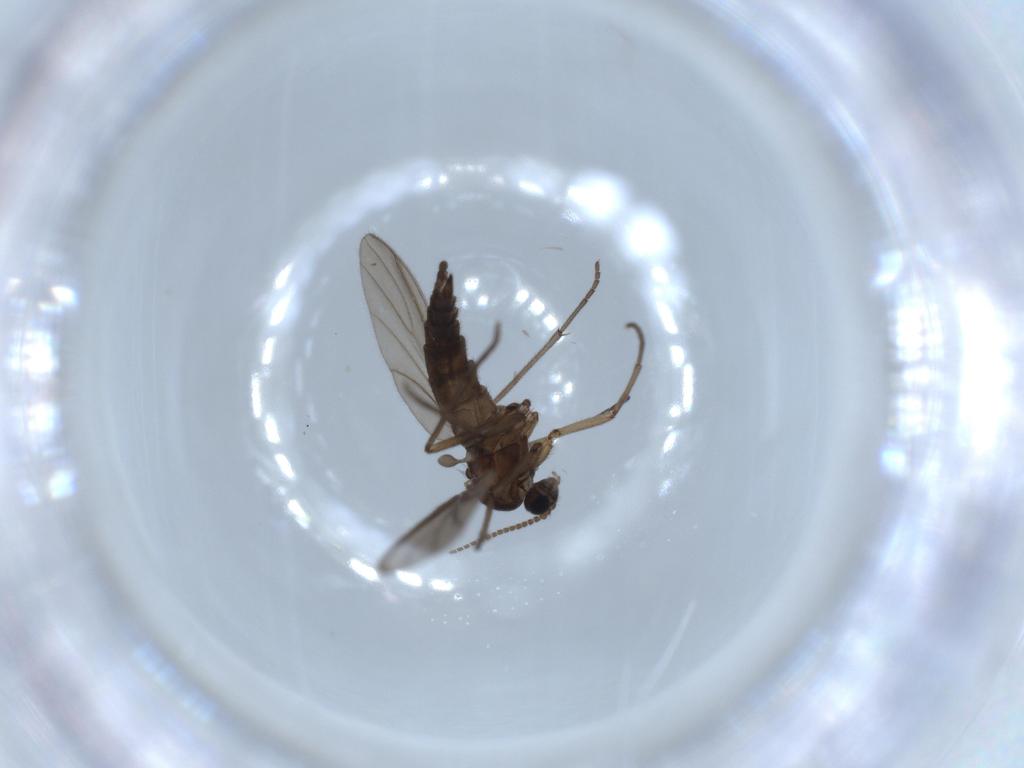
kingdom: Animalia
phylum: Arthropoda
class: Insecta
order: Diptera
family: Sciaridae
